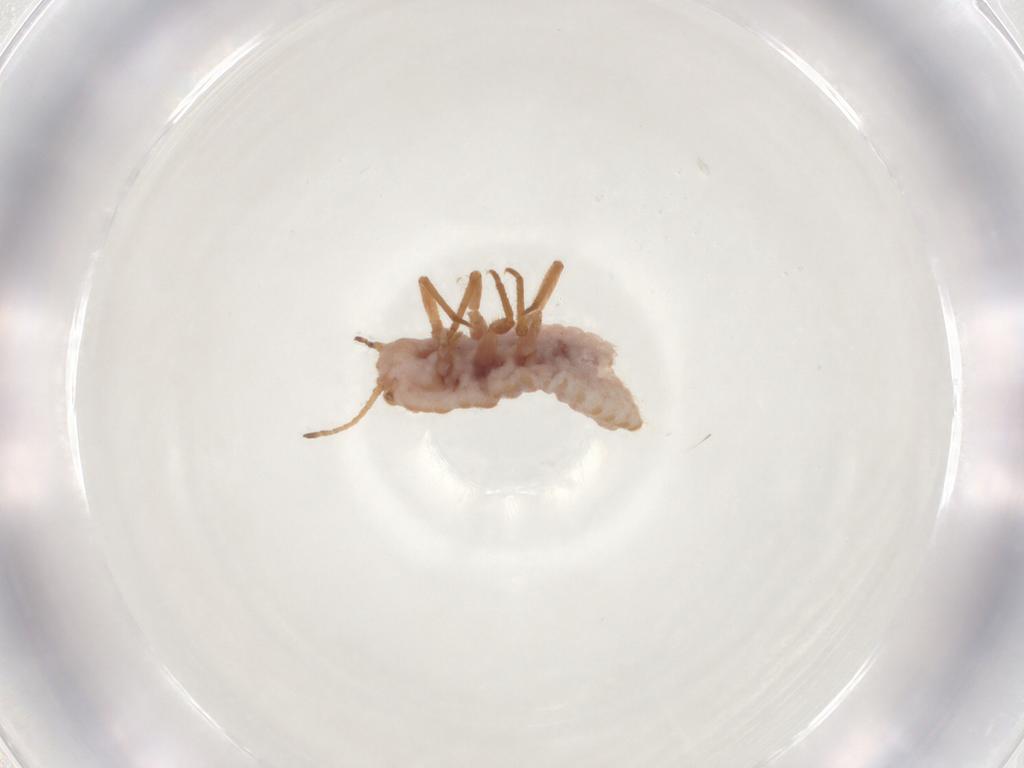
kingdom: Animalia
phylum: Arthropoda
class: Insecta
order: Hemiptera
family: Coccoidea_incertae_sedis
